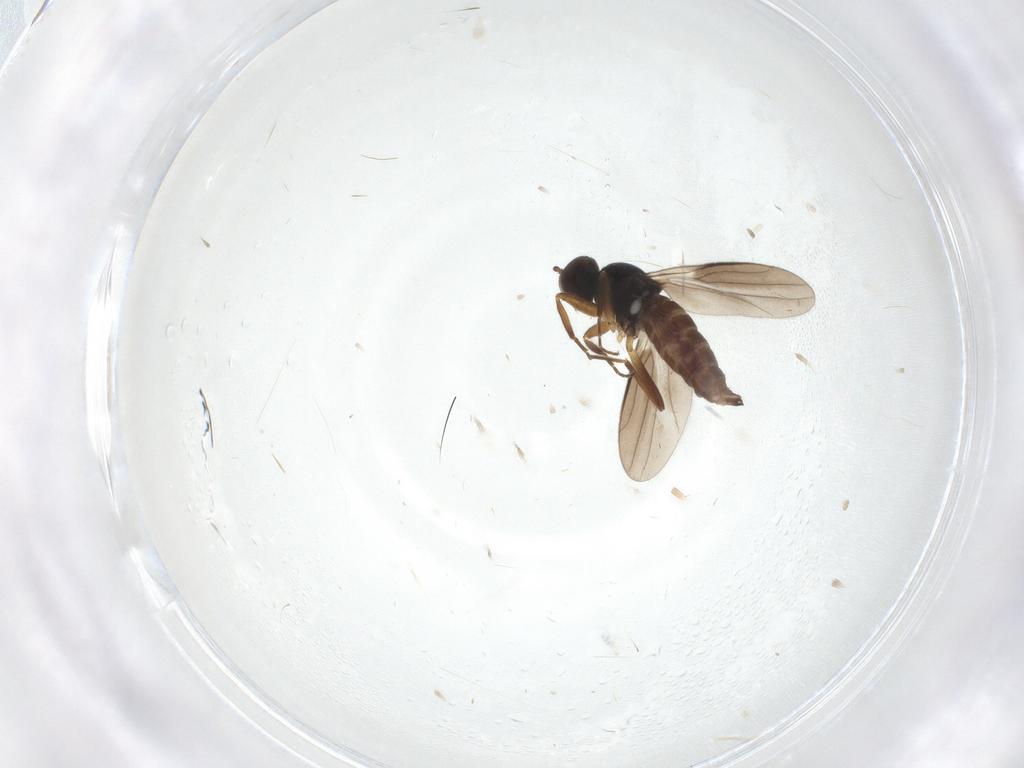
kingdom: Animalia
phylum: Arthropoda
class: Insecta
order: Diptera
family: Hybotidae
